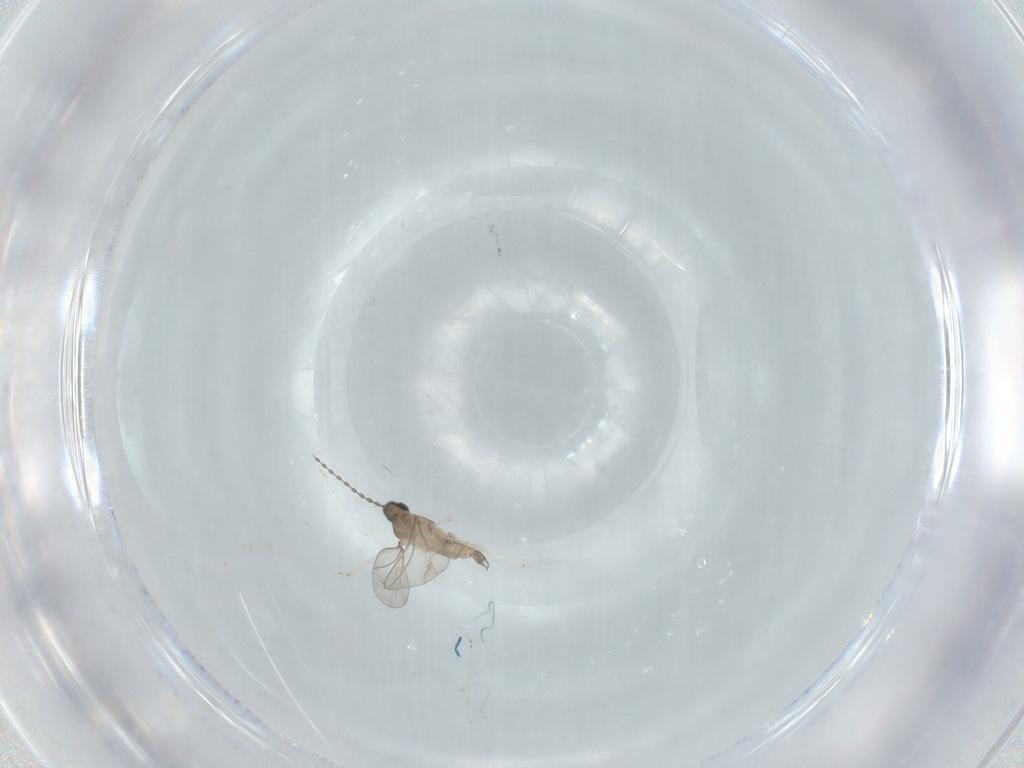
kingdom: Animalia
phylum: Arthropoda
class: Insecta
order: Diptera
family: Cecidomyiidae
